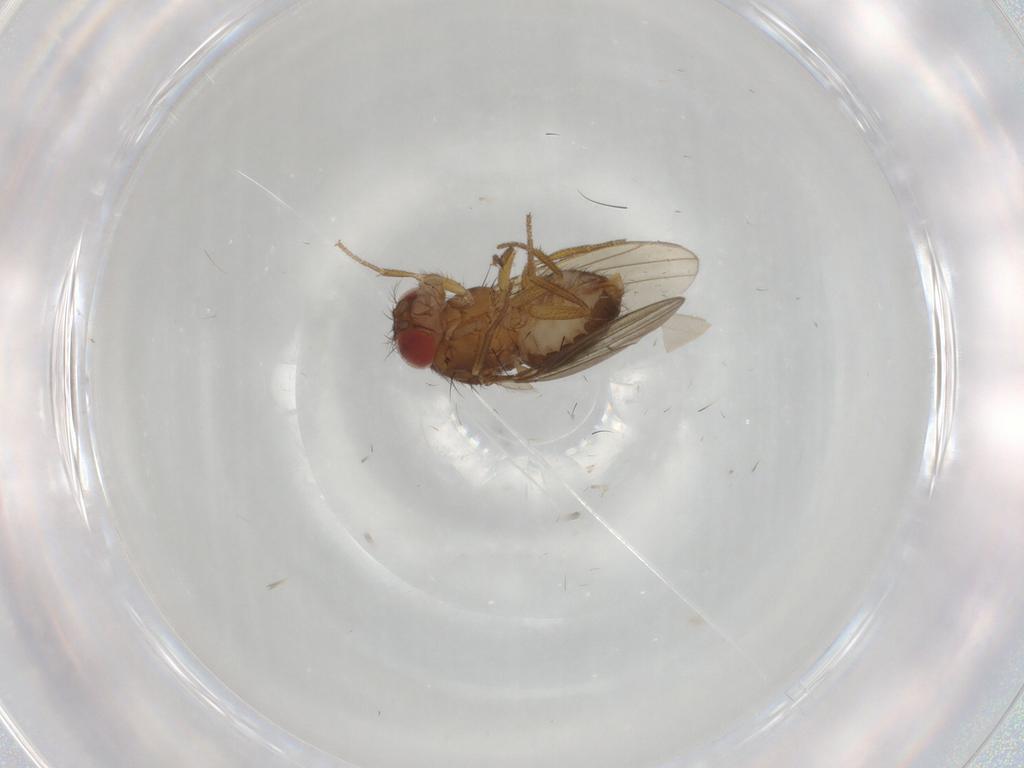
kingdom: Animalia
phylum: Arthropoda
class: Insecta
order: Diptera
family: Drosophilidae
